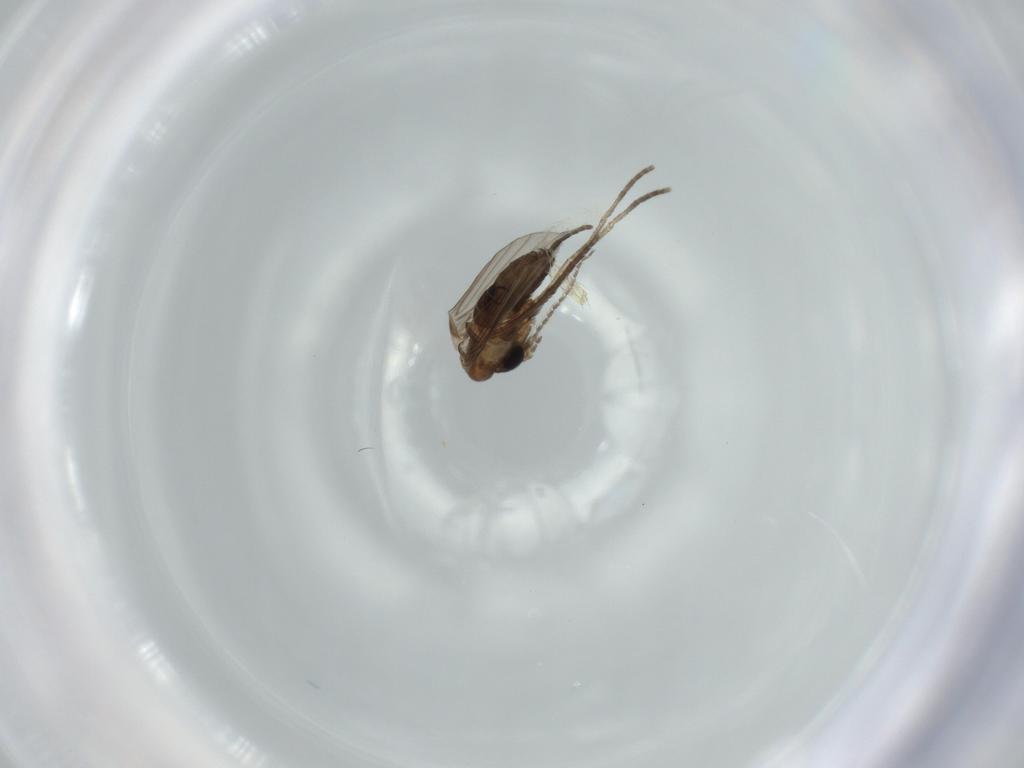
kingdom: Animalia
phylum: Arthropoda
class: Insecta
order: Diptera
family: Psychodidae
